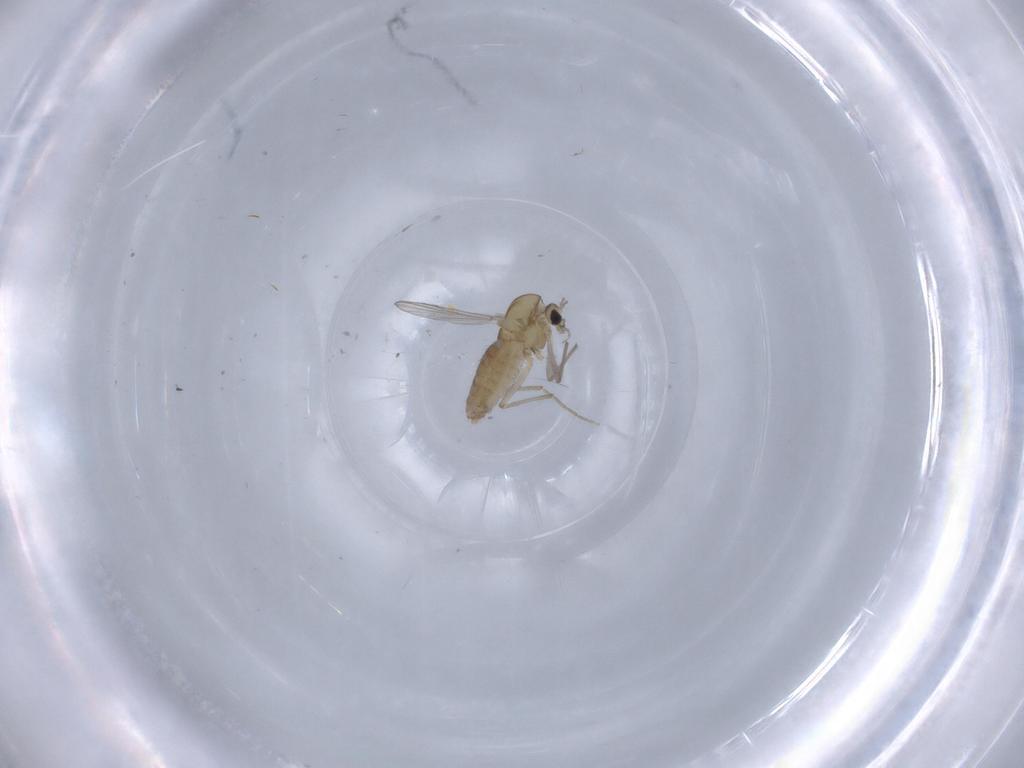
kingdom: Animalia
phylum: Arthropoda
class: Insecta
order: Diptera
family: Chironomidae
